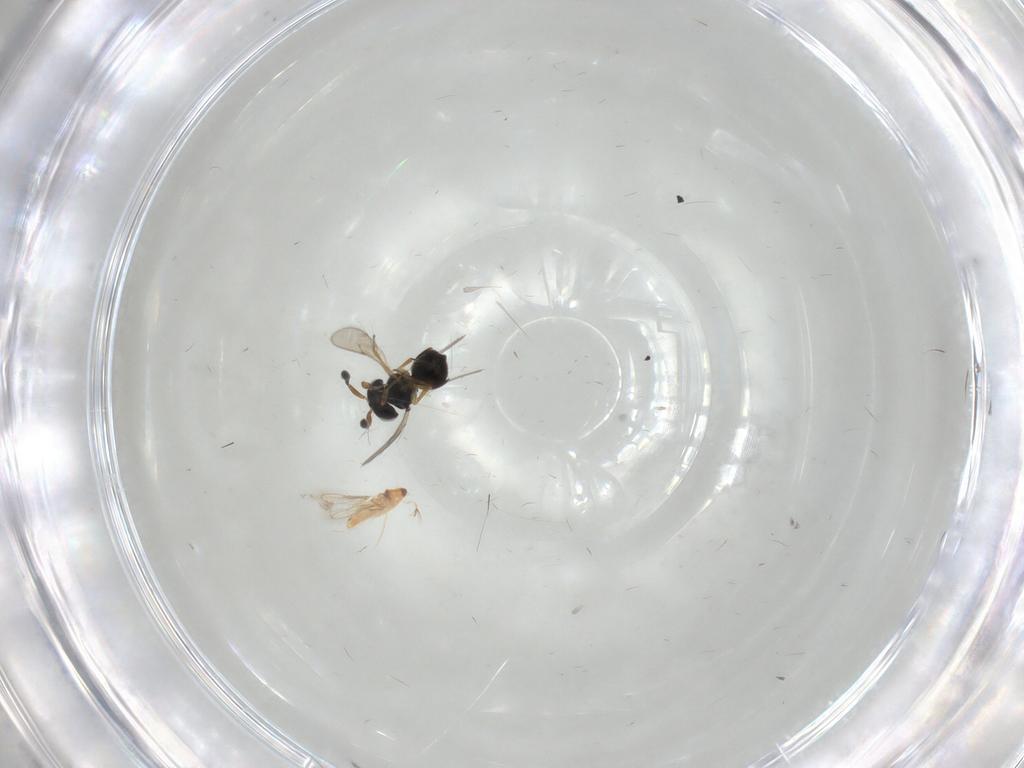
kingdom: Animalia
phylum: Arthropoda
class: Insecta
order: Hymenoptera
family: Scelionidae
